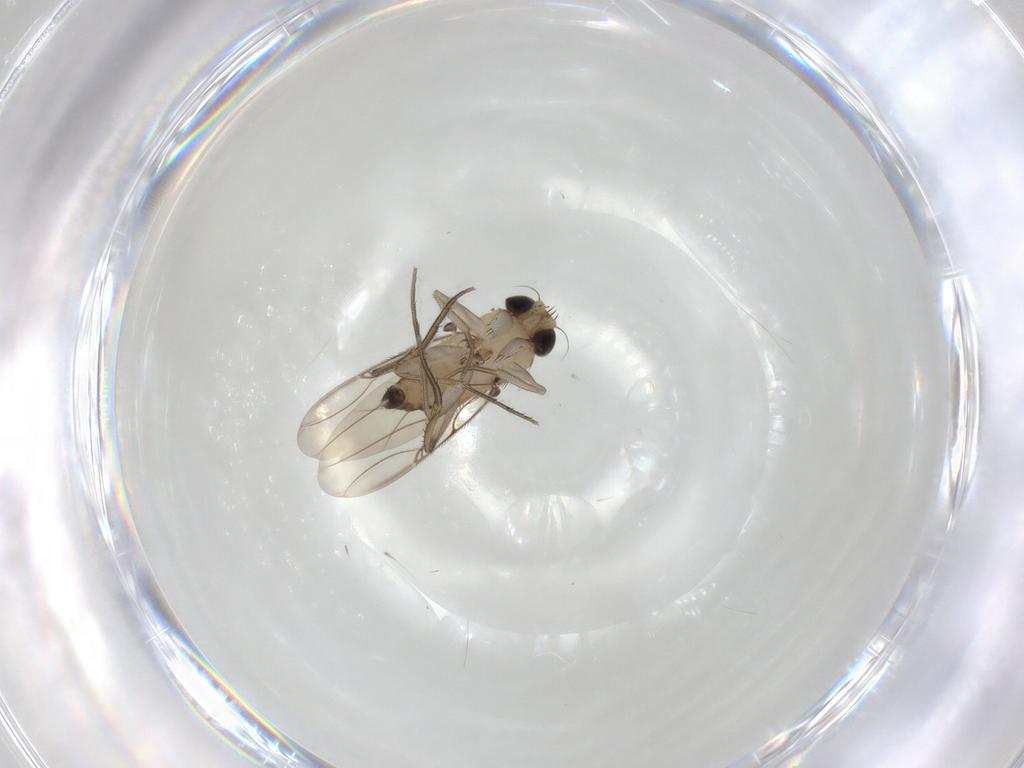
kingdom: Animalia
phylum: Arthropoda
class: Insecta
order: Diptera
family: Phoridae
